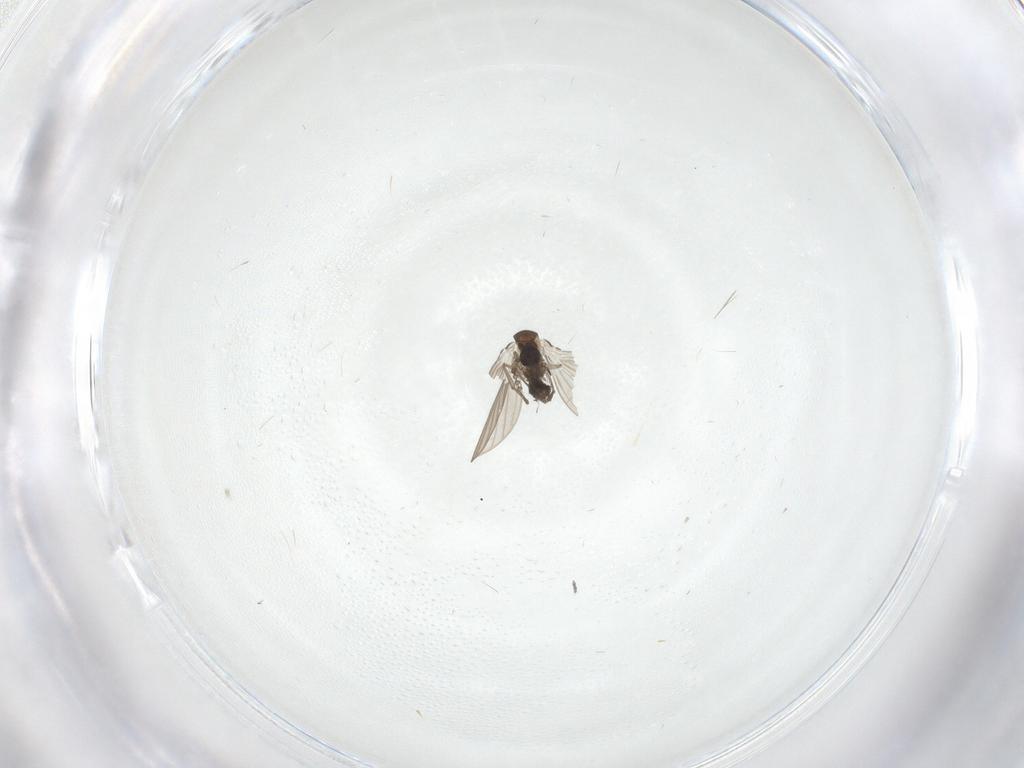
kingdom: Animalia
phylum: Arthropoda
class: Insecta
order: Diptera
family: Psychodidae
